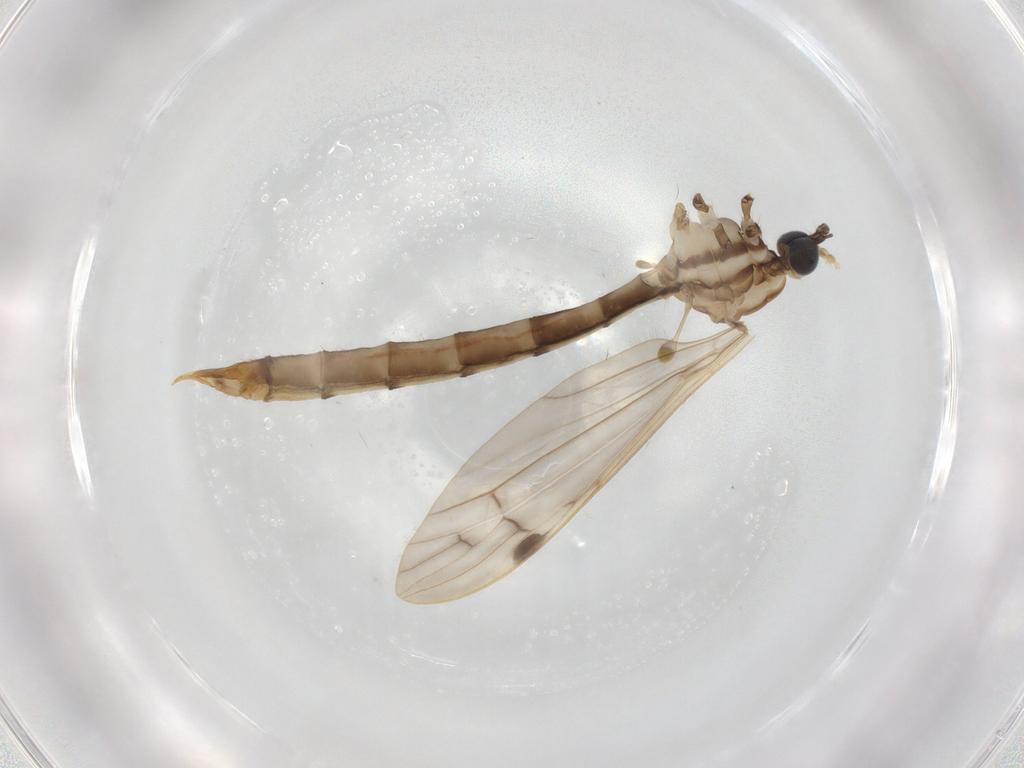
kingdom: Animalia
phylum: Arthropoda
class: Insecta
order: Diptera
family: Cecidomyiidae
